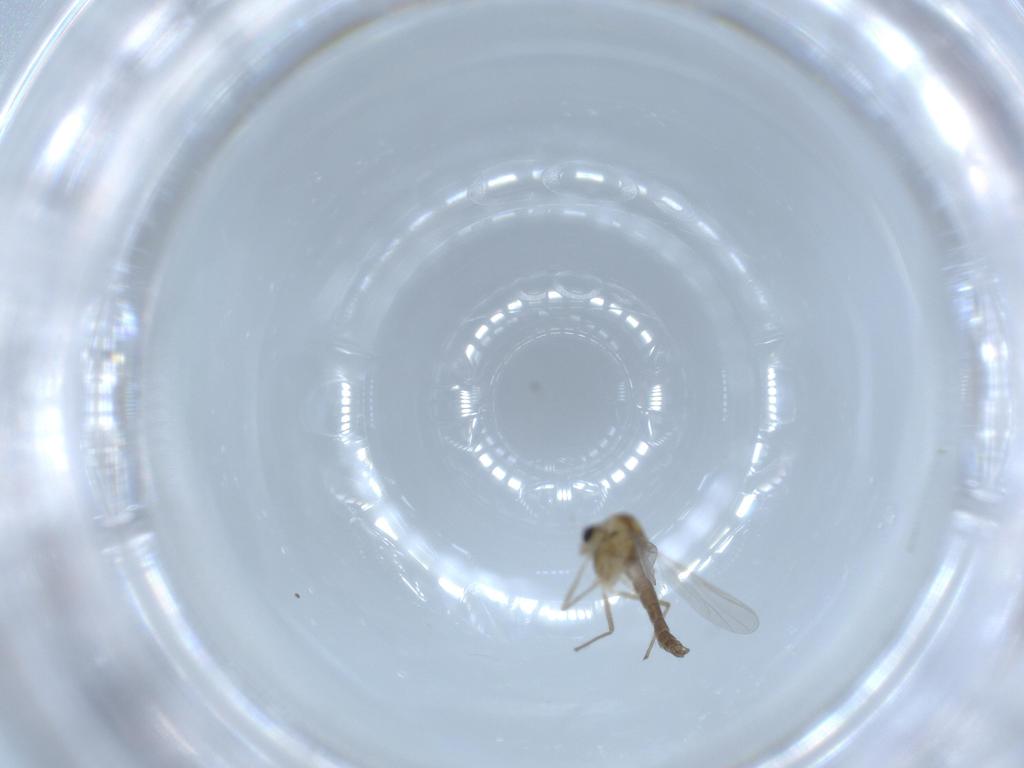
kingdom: Animalia
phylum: Arthropoda
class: Insecta
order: Diptera
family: Chironomidae
